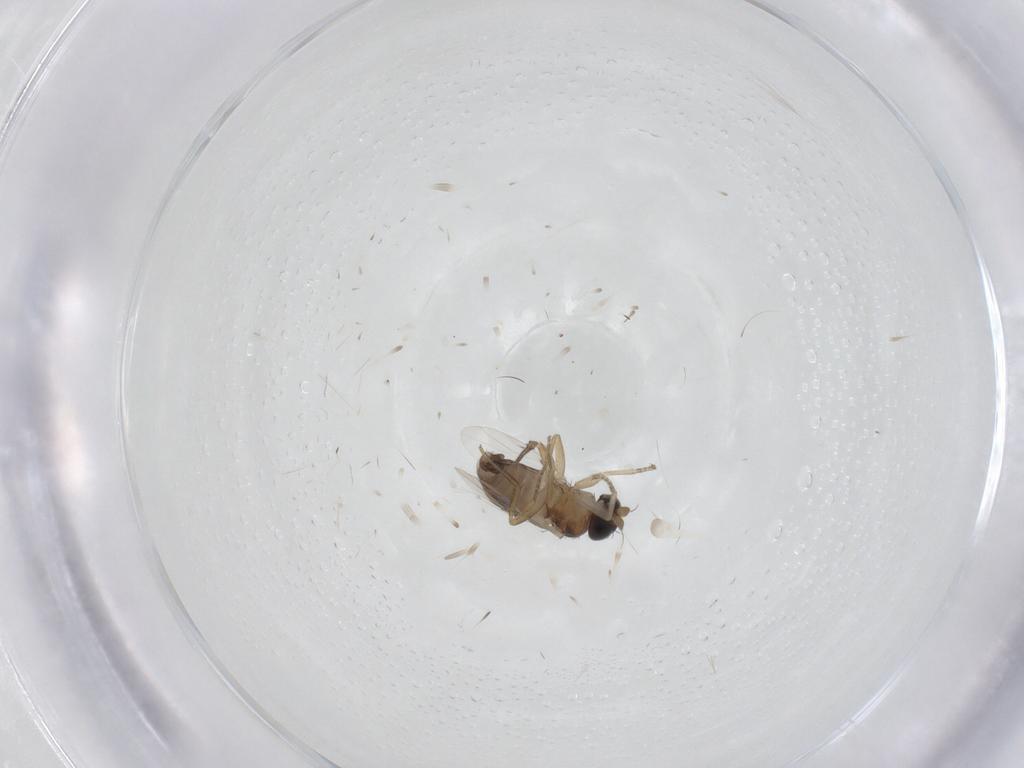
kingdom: Animalia
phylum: Arthropoda
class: Insecta
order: Diptera
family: Phoridae
